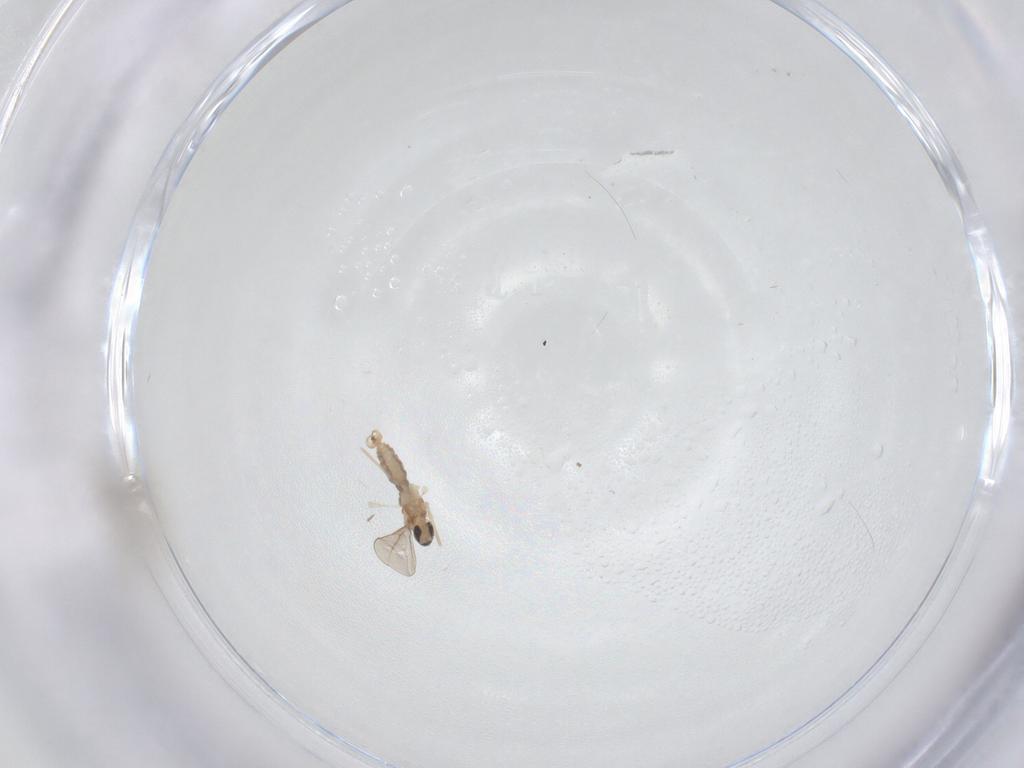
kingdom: Animalia
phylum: Arthropoda
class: Insecta
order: Diptera
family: Cecidomyiidae
